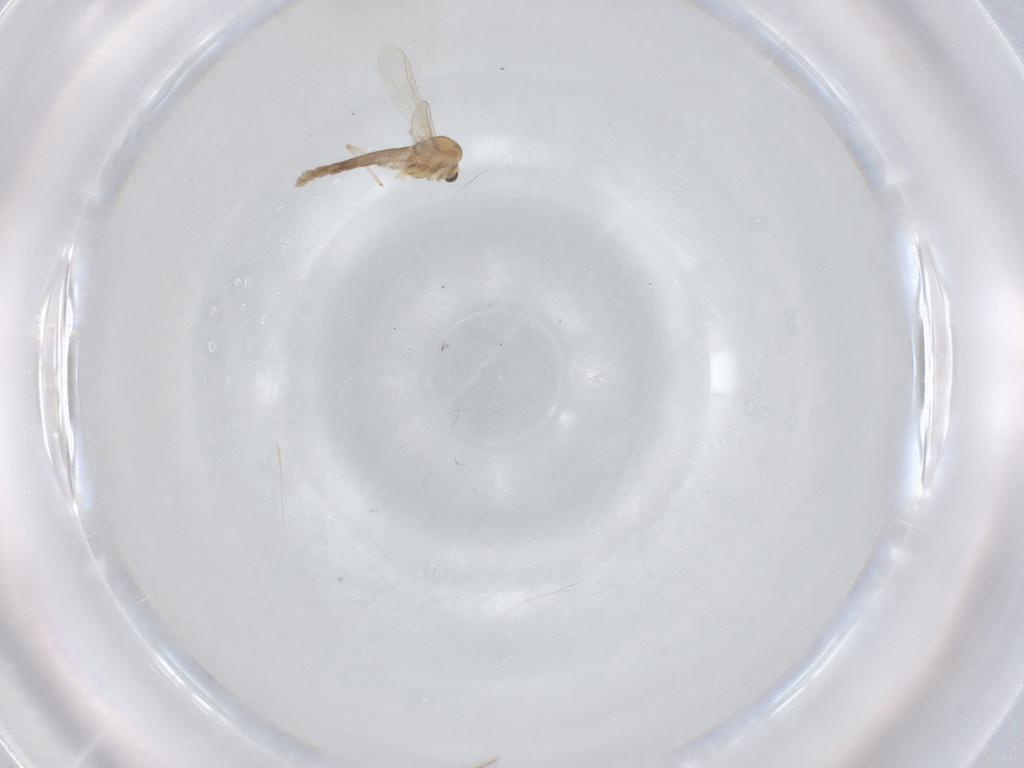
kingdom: Animalia
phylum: Arthropoda
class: Insecta
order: Diptera
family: Chironomidae
